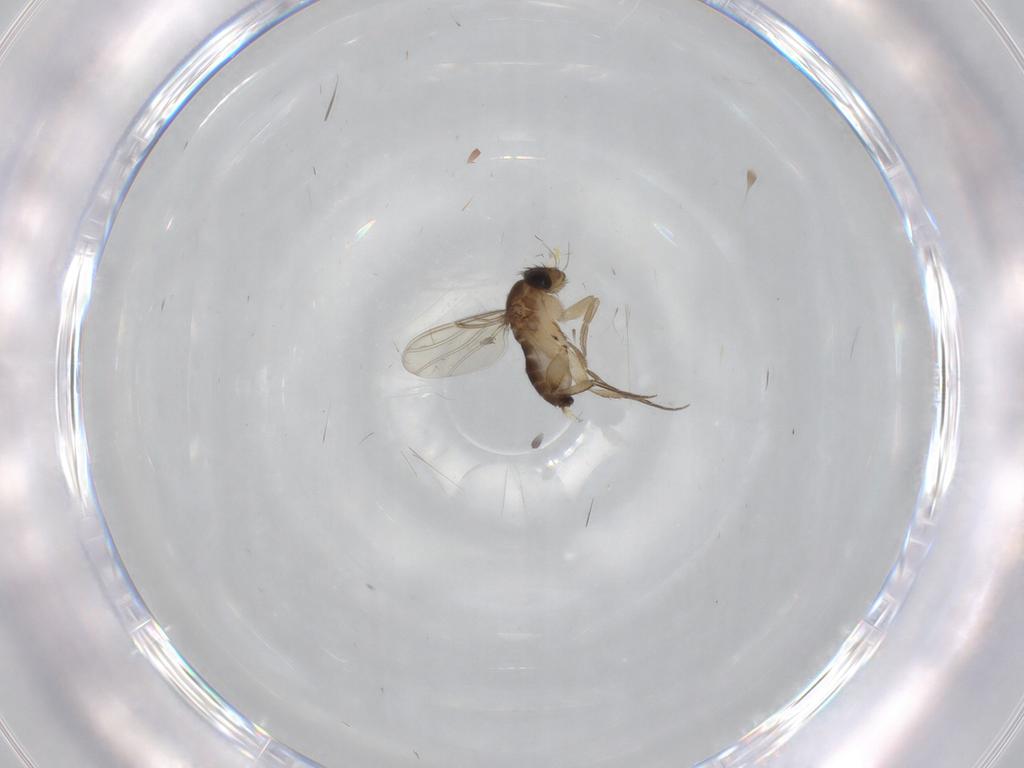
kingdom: Animalia
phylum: Arthropoda
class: Insecta
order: Diptera
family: Phoridae
